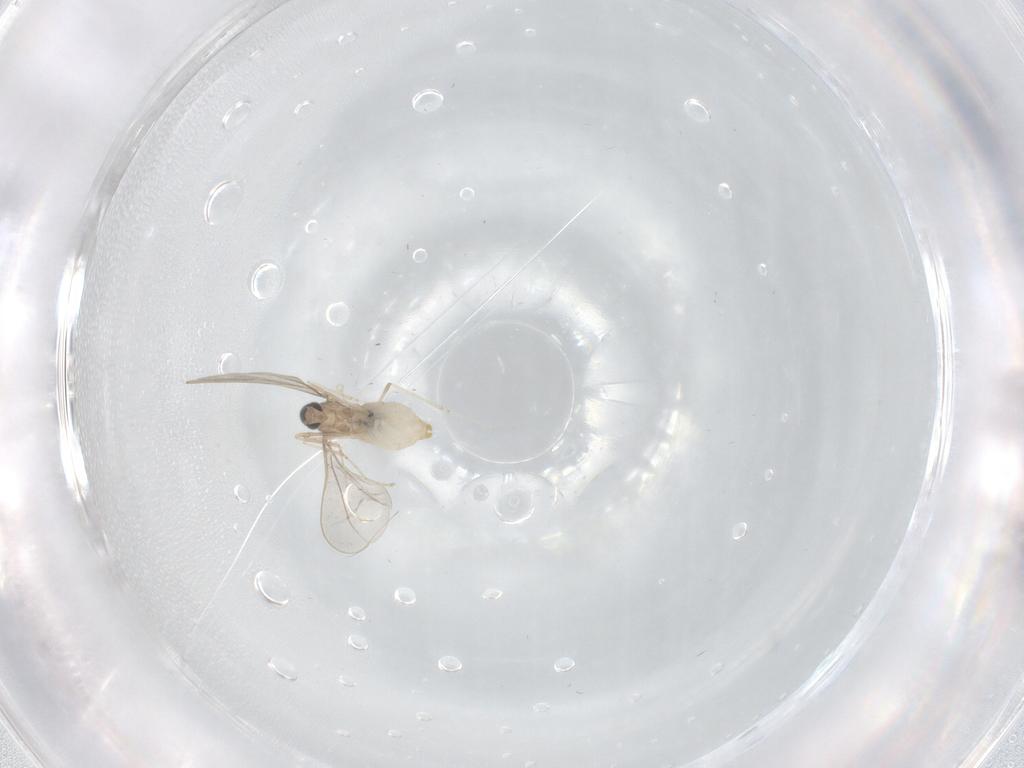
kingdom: Animalia
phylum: Arthropoda
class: Insecta
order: Diptera
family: Cecidomyiidae
